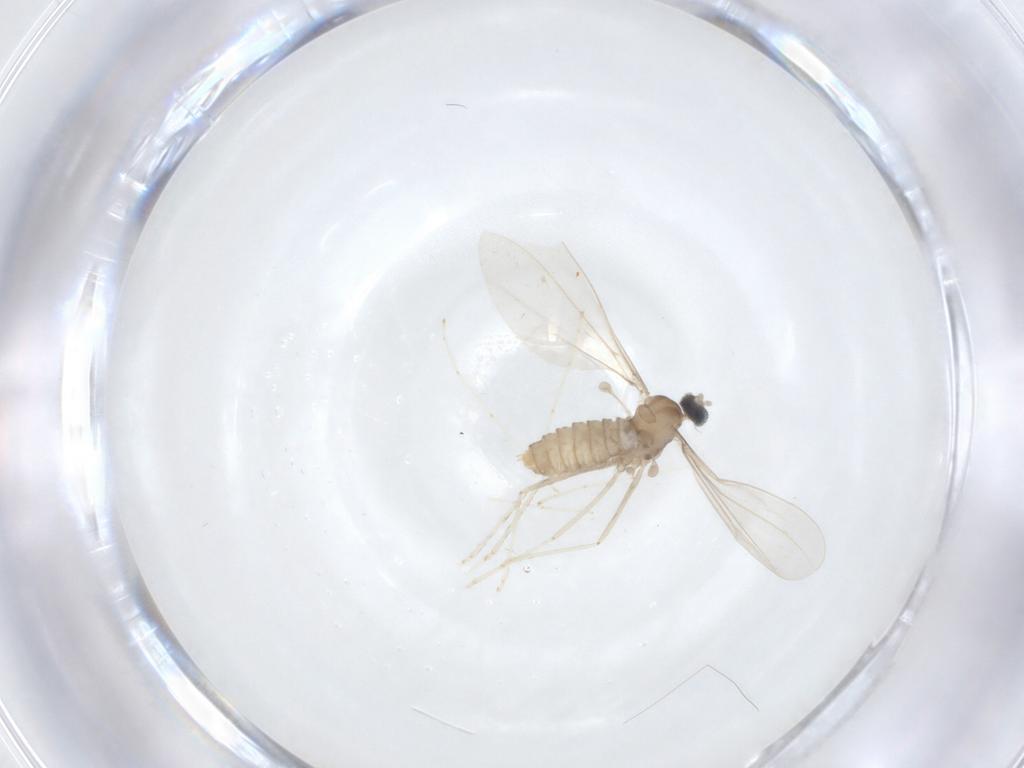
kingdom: Animalia
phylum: Arthropoda
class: Insecta
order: Diptera
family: Cecidomyiidae
